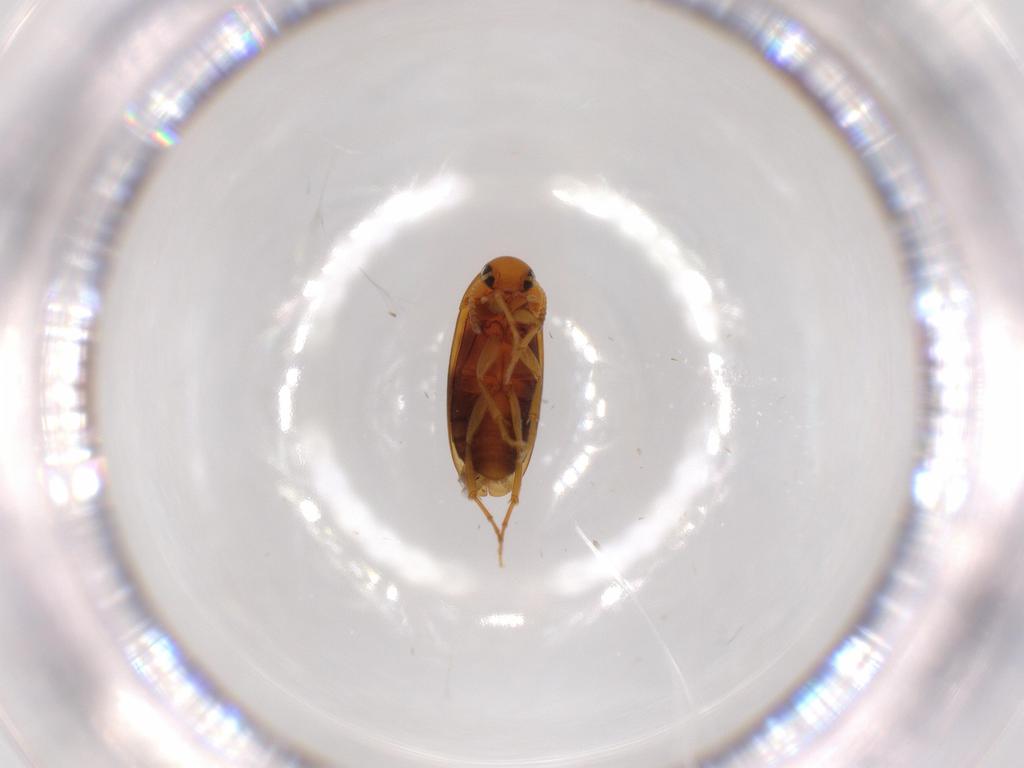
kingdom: Animalia
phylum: Arthropoda
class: Insecta
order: Coleoptera
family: Scraptiidae
